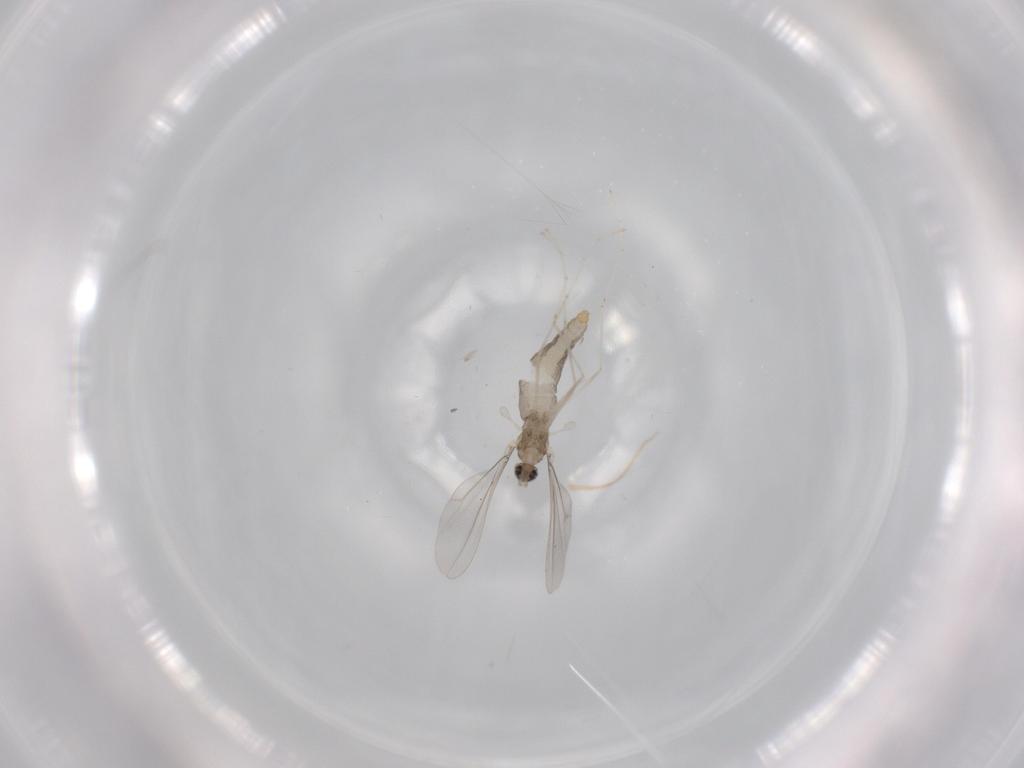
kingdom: Animalia
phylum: Arthropoda
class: Insecta
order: Diptera
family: Cecidomyiidae
